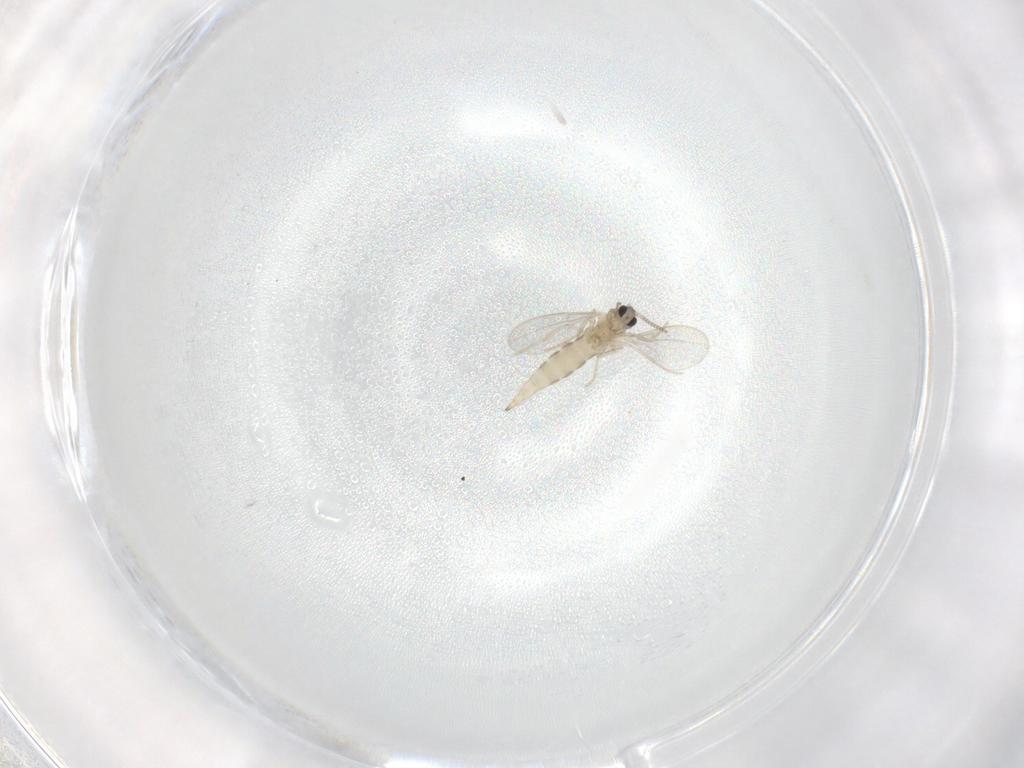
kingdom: Animalia
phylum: Arthropoda
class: Insecta
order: Diptera
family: Cecidomyiidae
